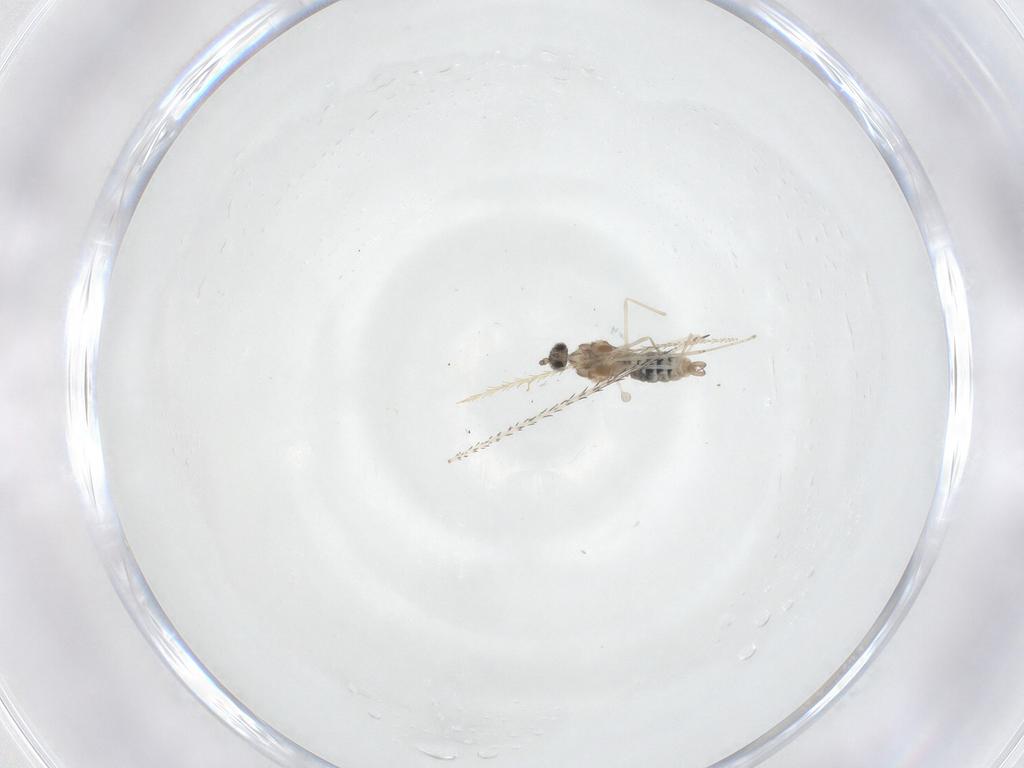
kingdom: Animalia
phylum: Arthropoda
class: Insecta
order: Diptera
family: Cecidomyiidae
